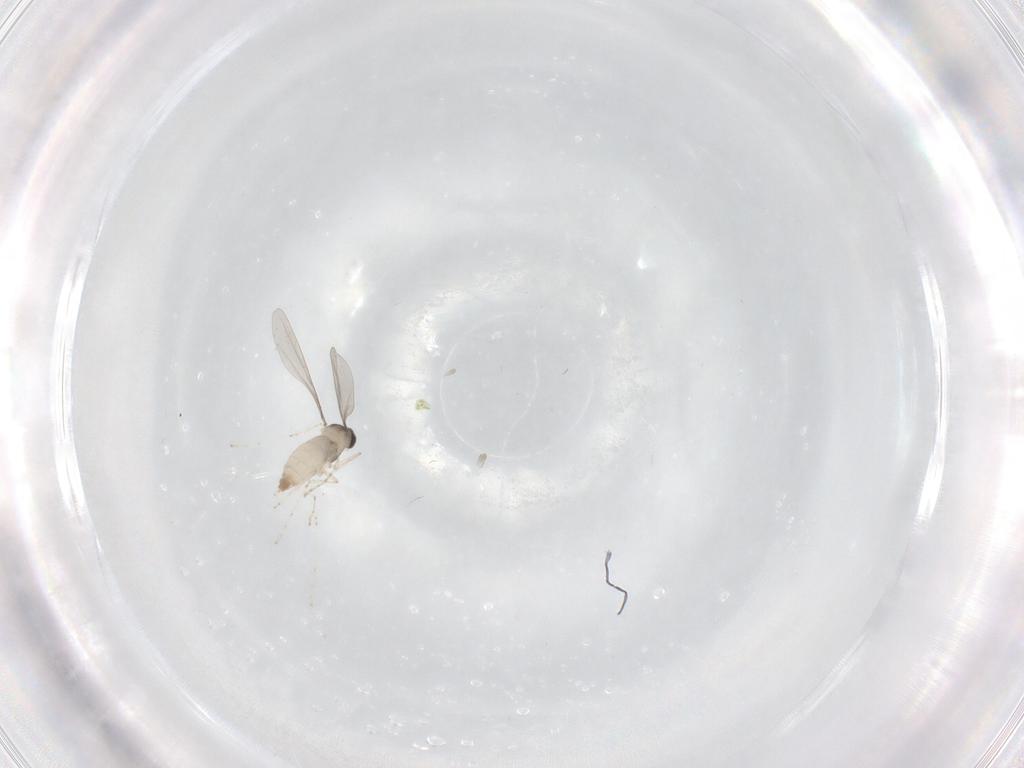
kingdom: Animalia
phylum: Arthropoda
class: Insecta
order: Diptera
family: Cecidomyiidae
